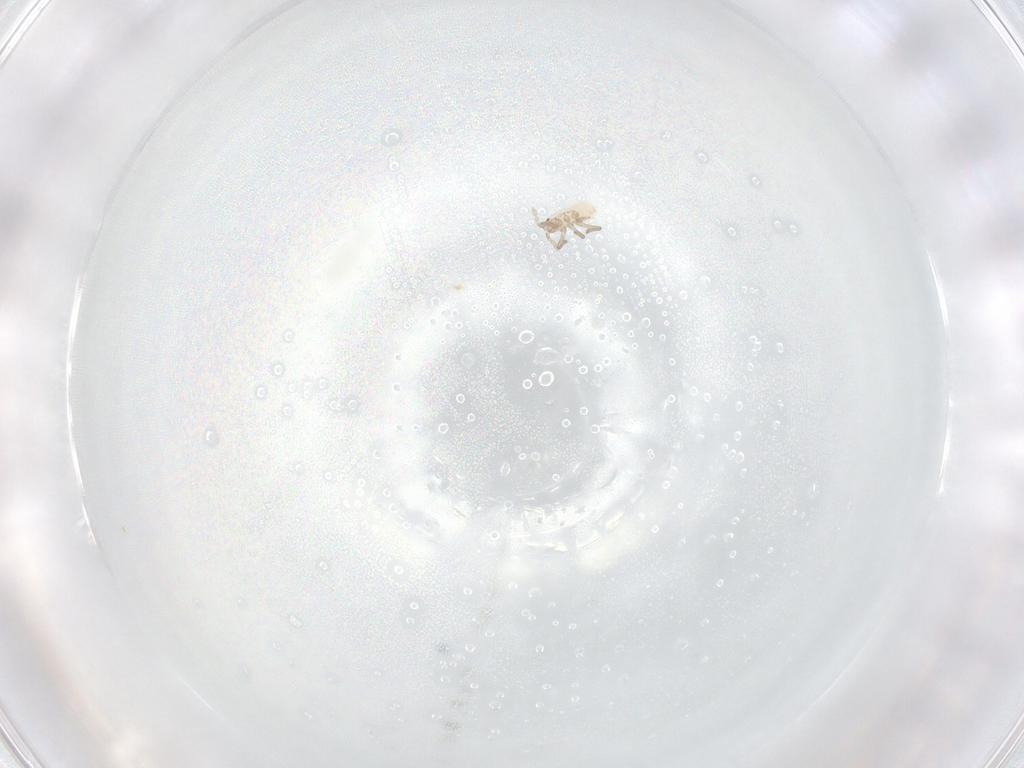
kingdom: Animalia
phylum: Arthropoda
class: Insecta
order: Hemiptera
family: Aphididae
